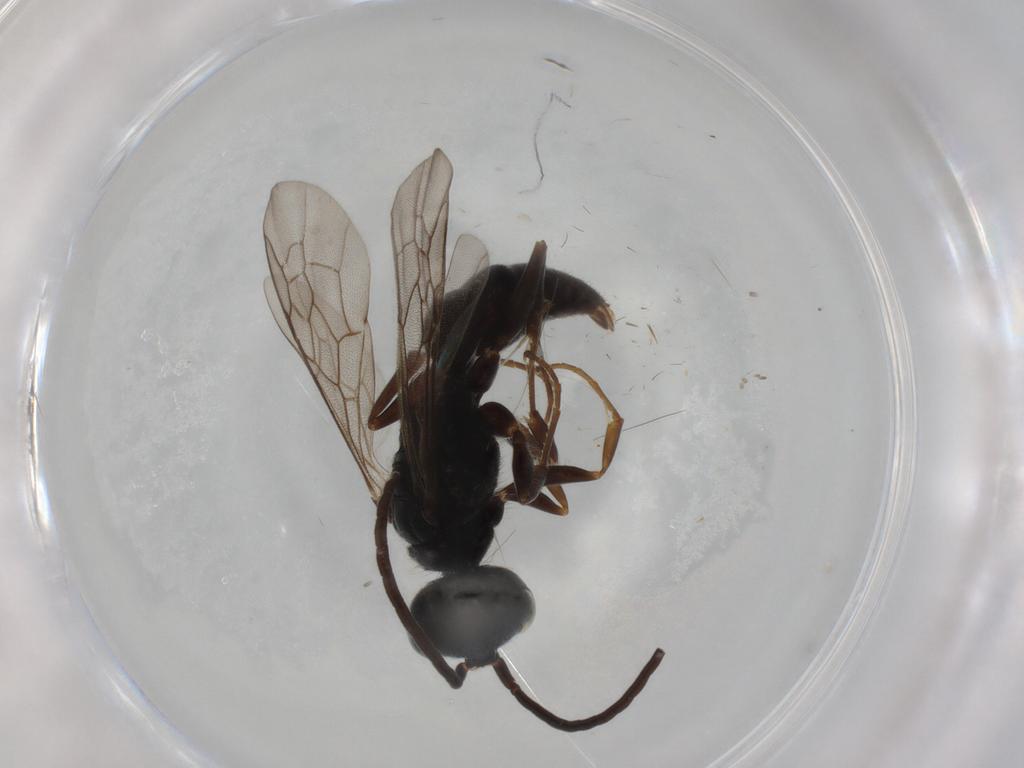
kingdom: Animalia
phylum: Arthropoda
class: Insecta
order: Hymenoptera
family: Ampulicidae
